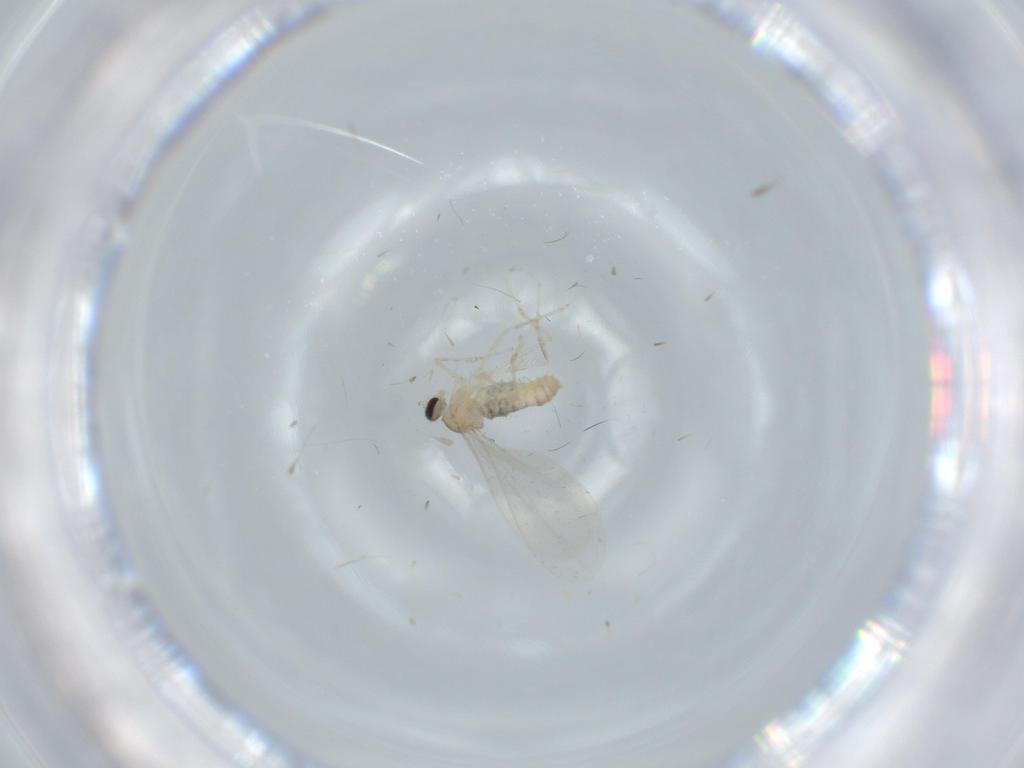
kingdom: Animalia
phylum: Arthropoda
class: Insecta
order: Diptera
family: Cecidomyiidae
